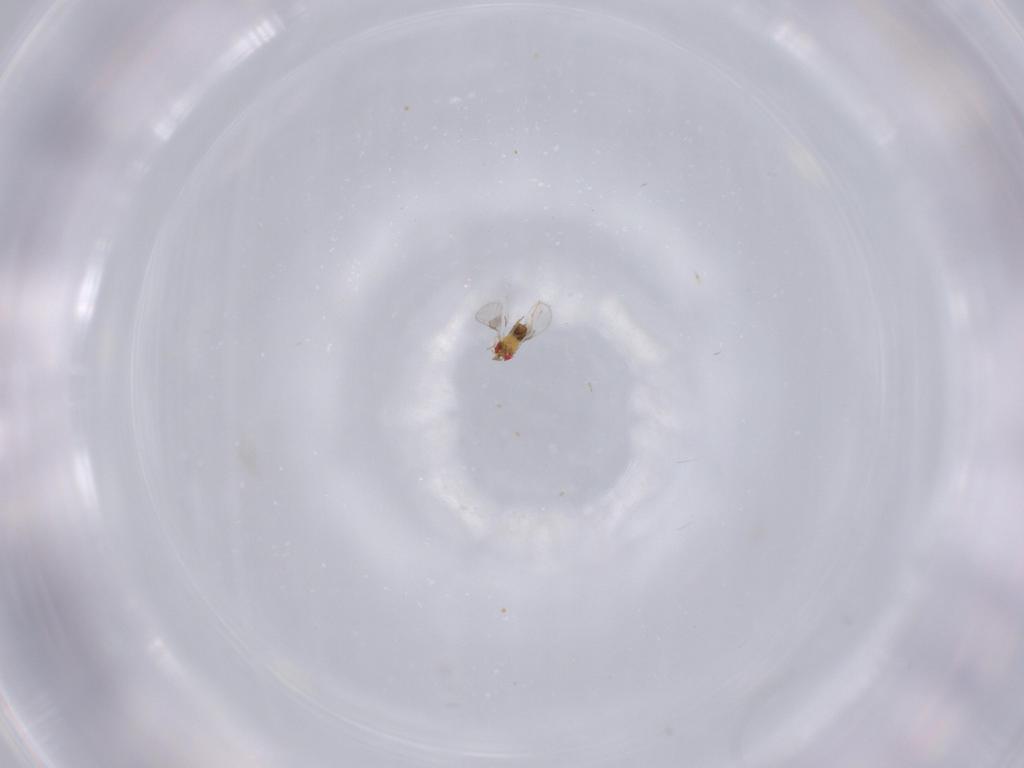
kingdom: Animalia
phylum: Arthropoda
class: Insecta
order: Hymenoptera
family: Trichogrammatidae
